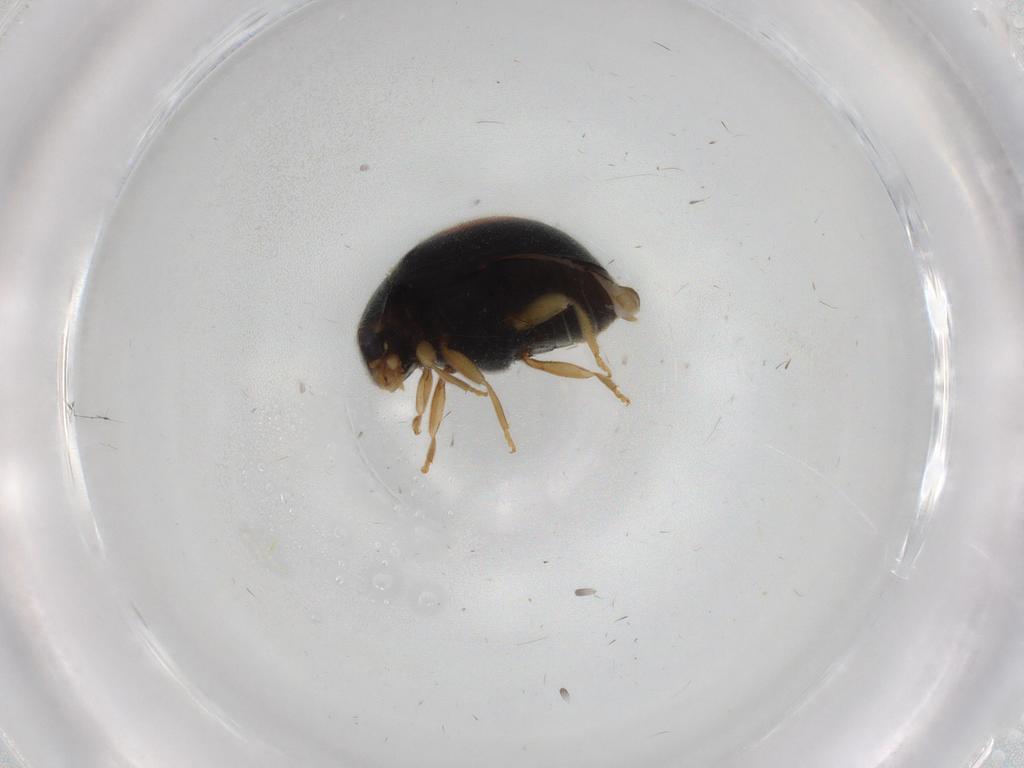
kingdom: Animalia
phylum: Arthropoda
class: Insecta
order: Coleoptera
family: Coccinellidae
